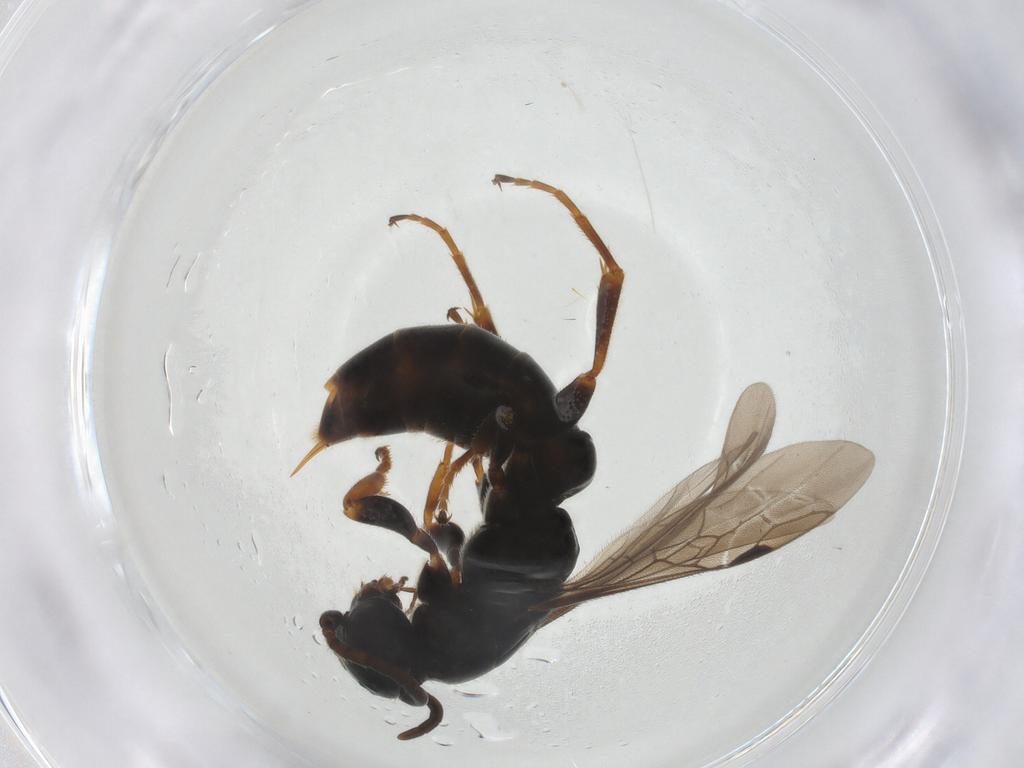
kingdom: Animalia
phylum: Arthropoda
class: Insecta
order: Hymenoptera
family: Sierolomorphidae
